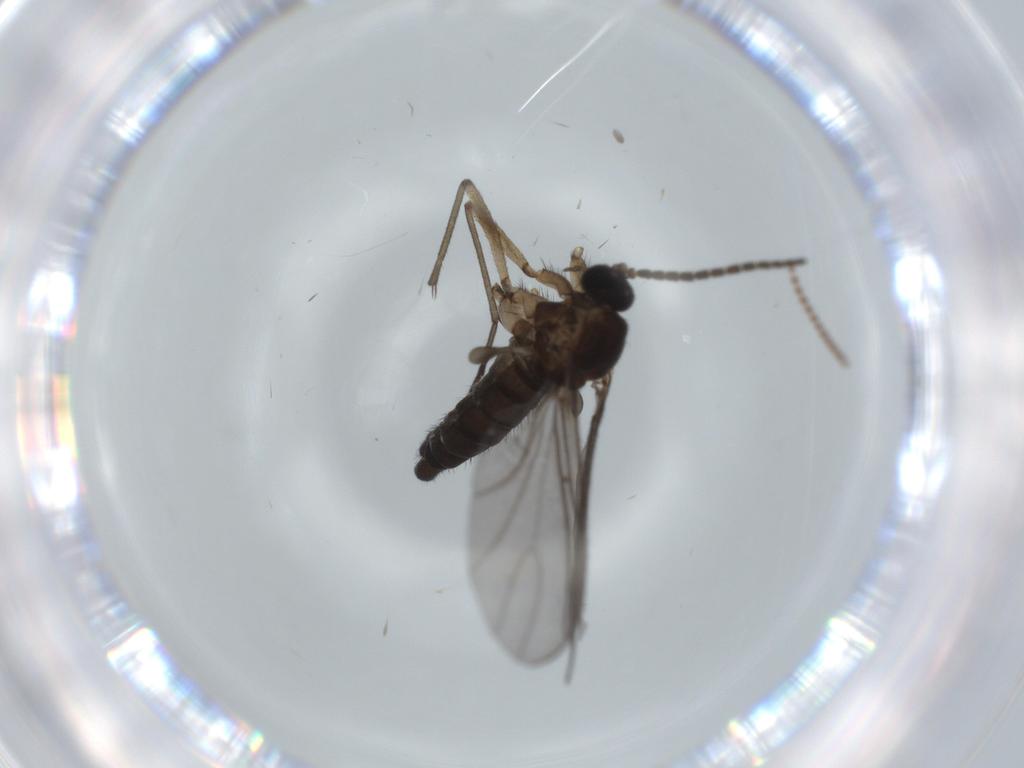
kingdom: Animalia
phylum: Arthropoda
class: Insecta
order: Diptera
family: Sciaridae
